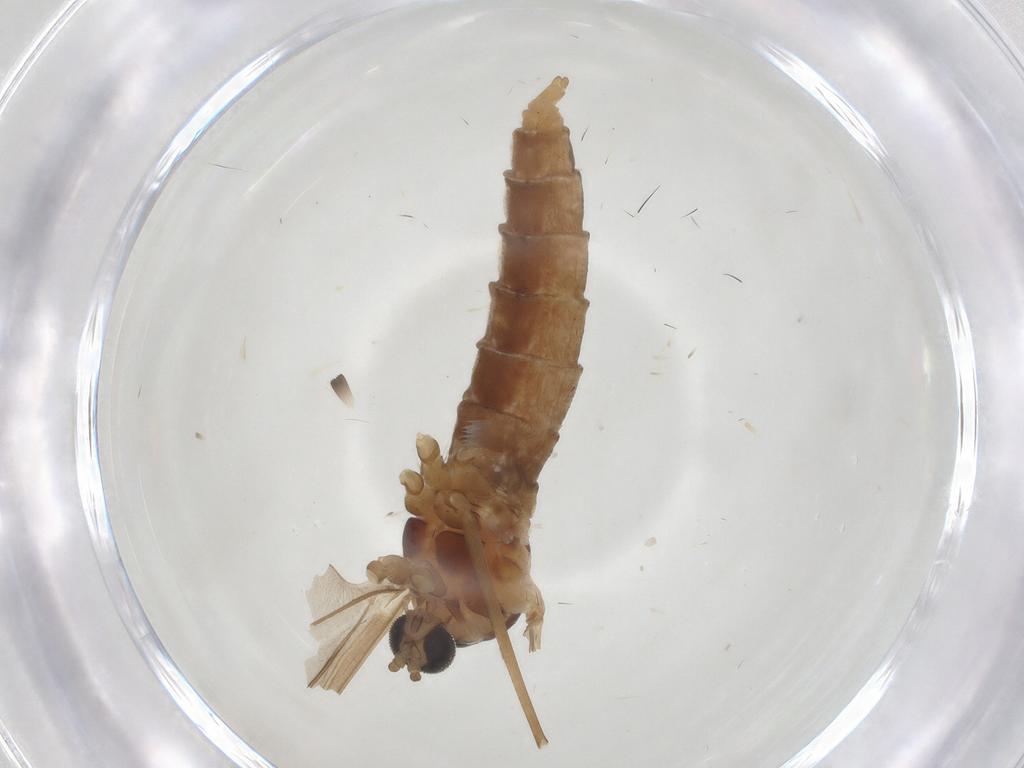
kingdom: Animalia
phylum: Arthropoda
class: Insecta
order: Diptera
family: Cecidomyiidae
